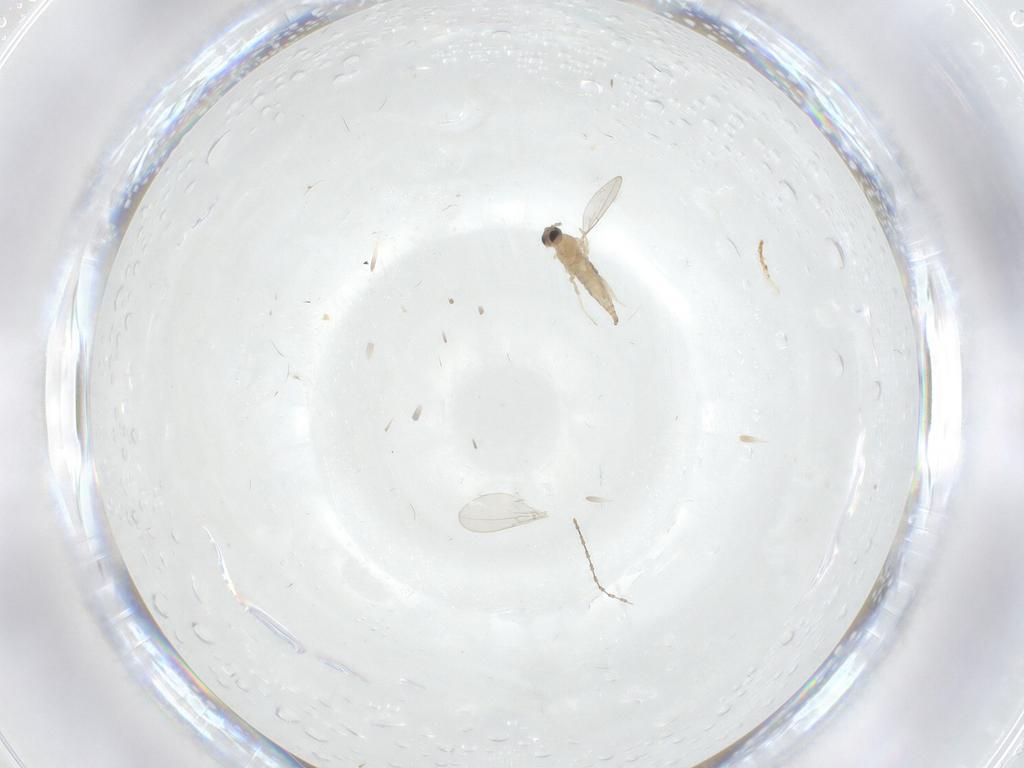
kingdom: Animalia
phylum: Arthropoda
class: Insecta
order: Diptera
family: Cecidomyiidae
